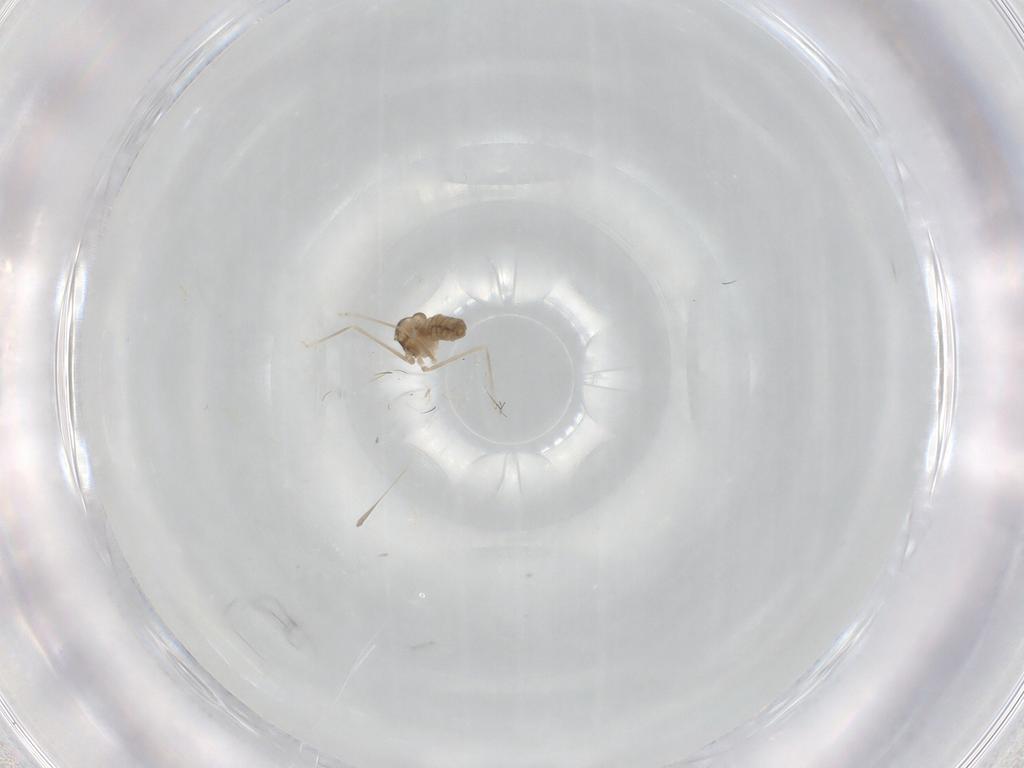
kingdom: Animalia
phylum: Arthropoda
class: Insecta
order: Diptera
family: Cecidomyiidae
